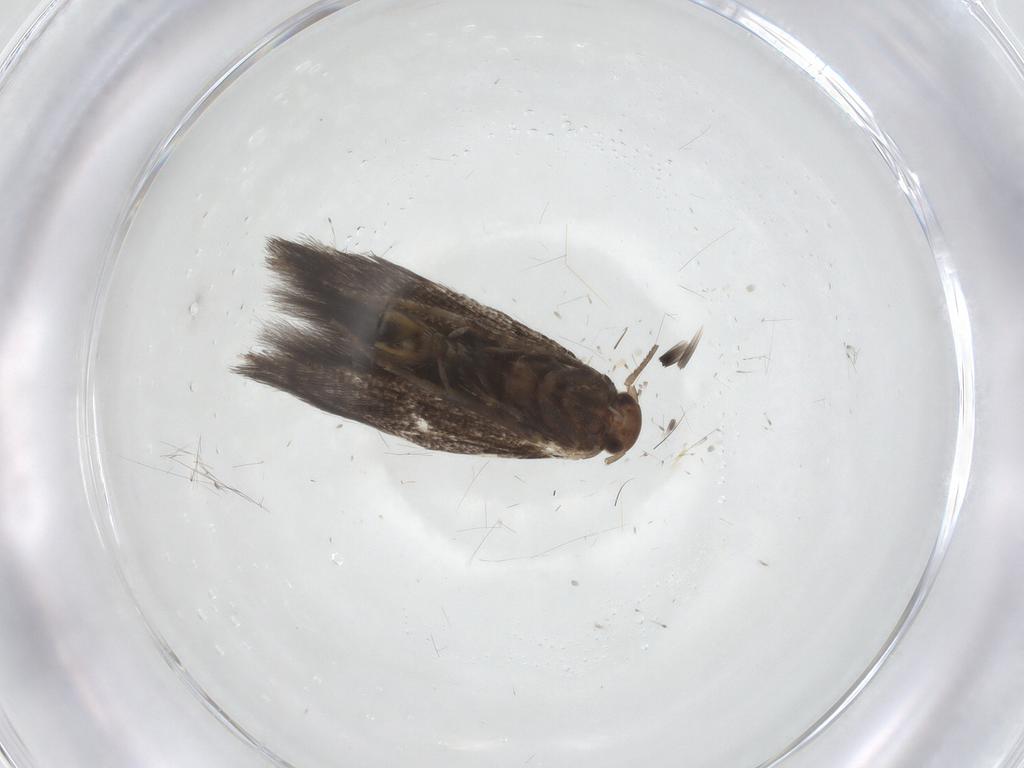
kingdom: Animalia
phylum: Arthropoda
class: Insecta
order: Lepidoptera
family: Elachistidae
